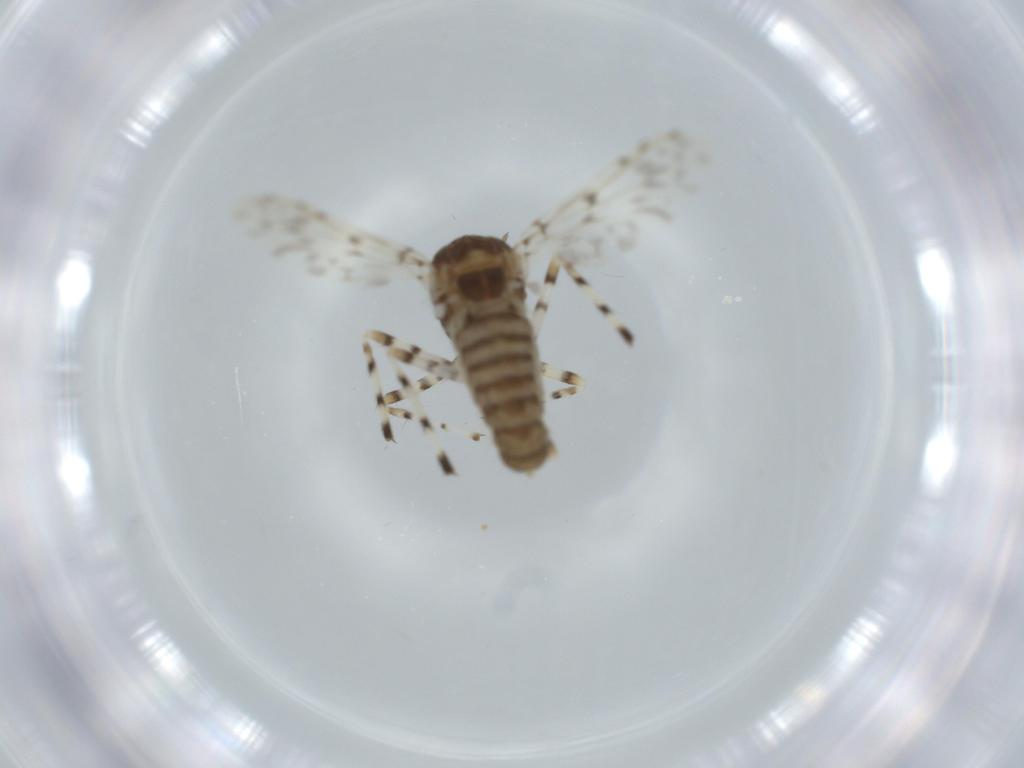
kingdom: Animalia
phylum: Arthropoda
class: Insecta
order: Diptera
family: Chironomidae
